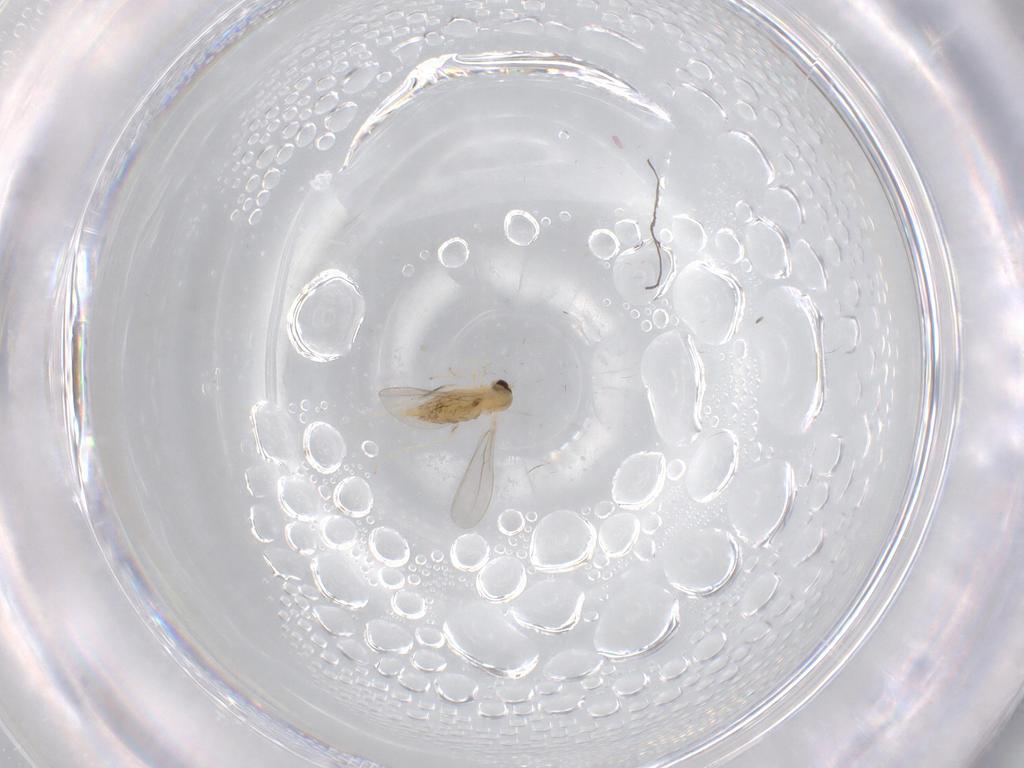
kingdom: Animalia
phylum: Arthropoda
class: Insecta
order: Diptera
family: Cecidomyiidae
